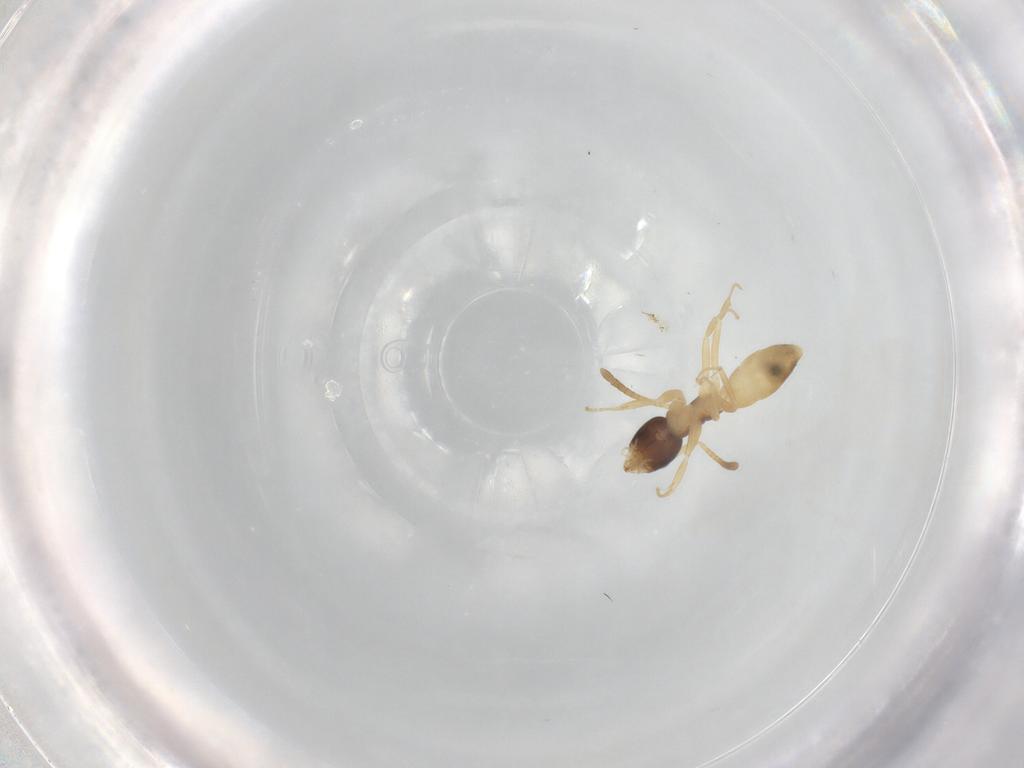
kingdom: Animalia
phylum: Arthropoda
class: Insecta
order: Hymenoptera
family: Formicidae
